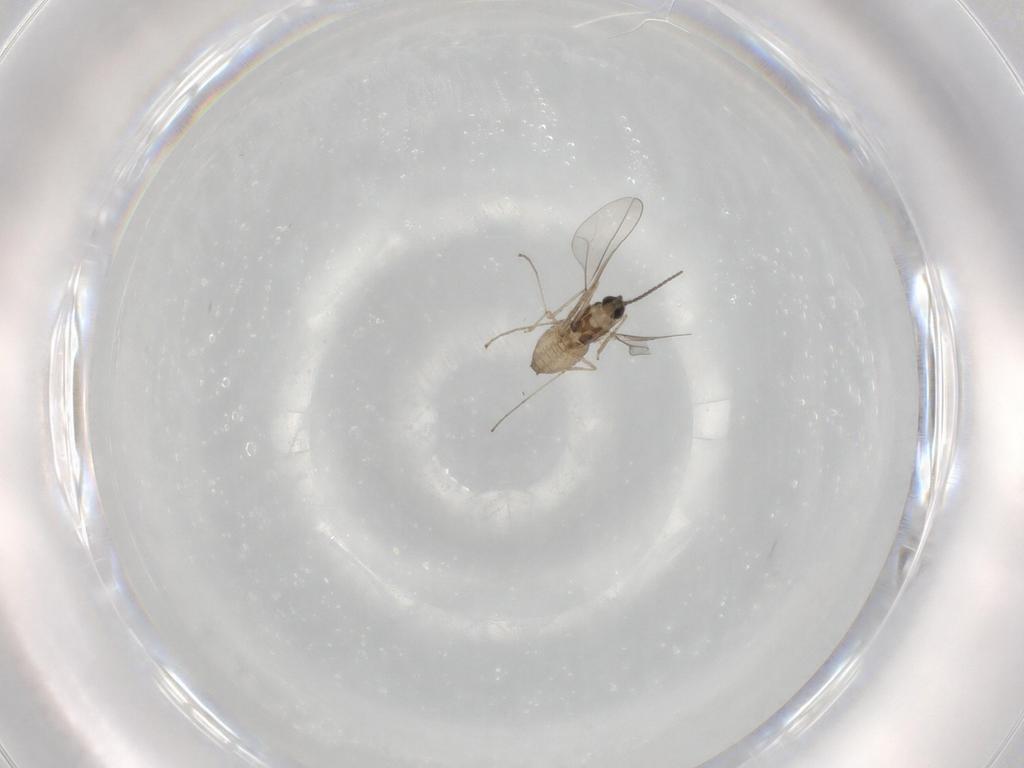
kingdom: Animalia
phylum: Arthropoda
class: Insecta
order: Diptera
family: Cecidomyiidae
